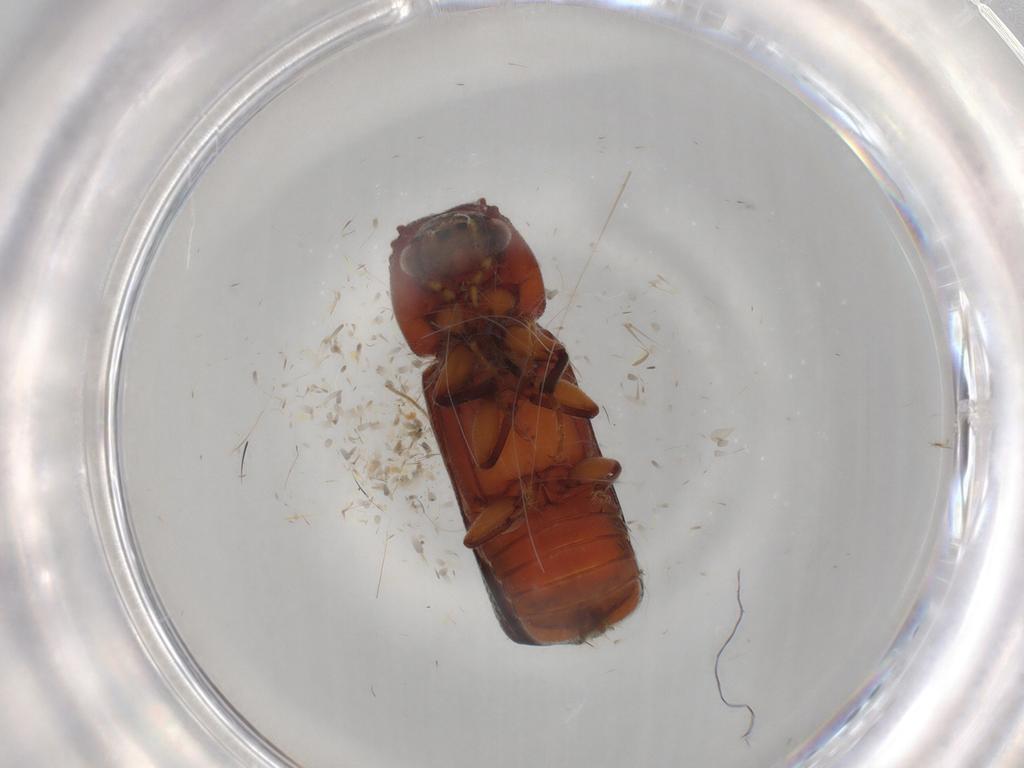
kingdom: Animalia
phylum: Arthropoda
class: Insecta
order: Coleoptera
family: Bostrichidae
